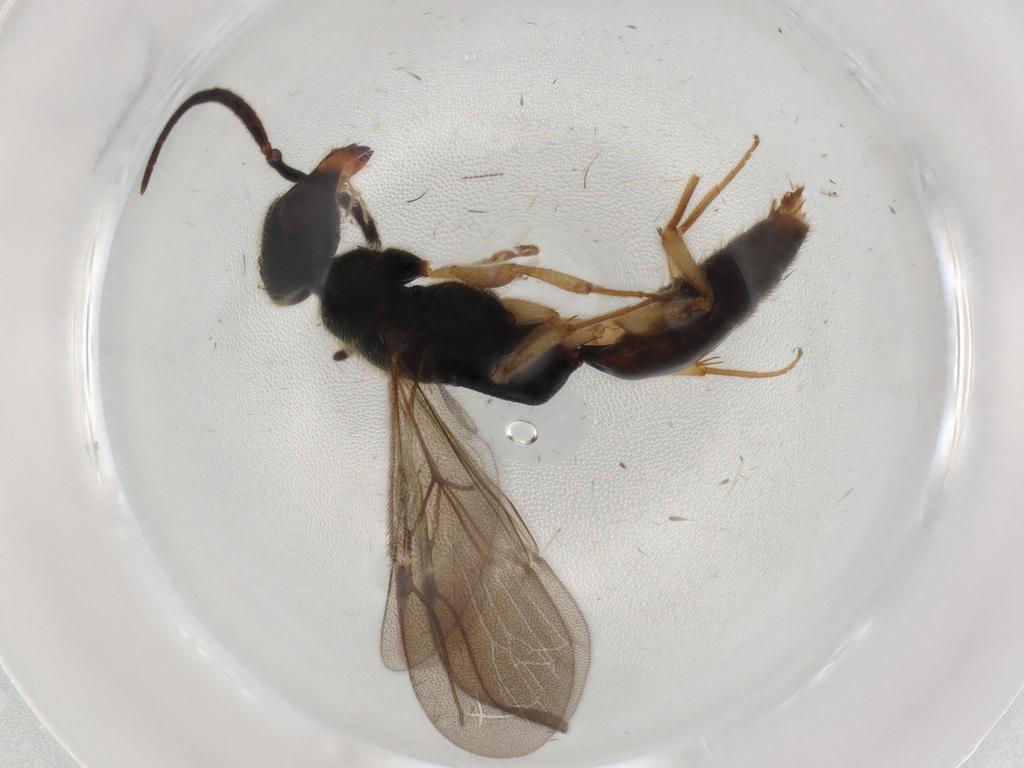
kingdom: Animalia
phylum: Arthropoda
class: Insecta
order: Hymenoptera
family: Bethylidae
